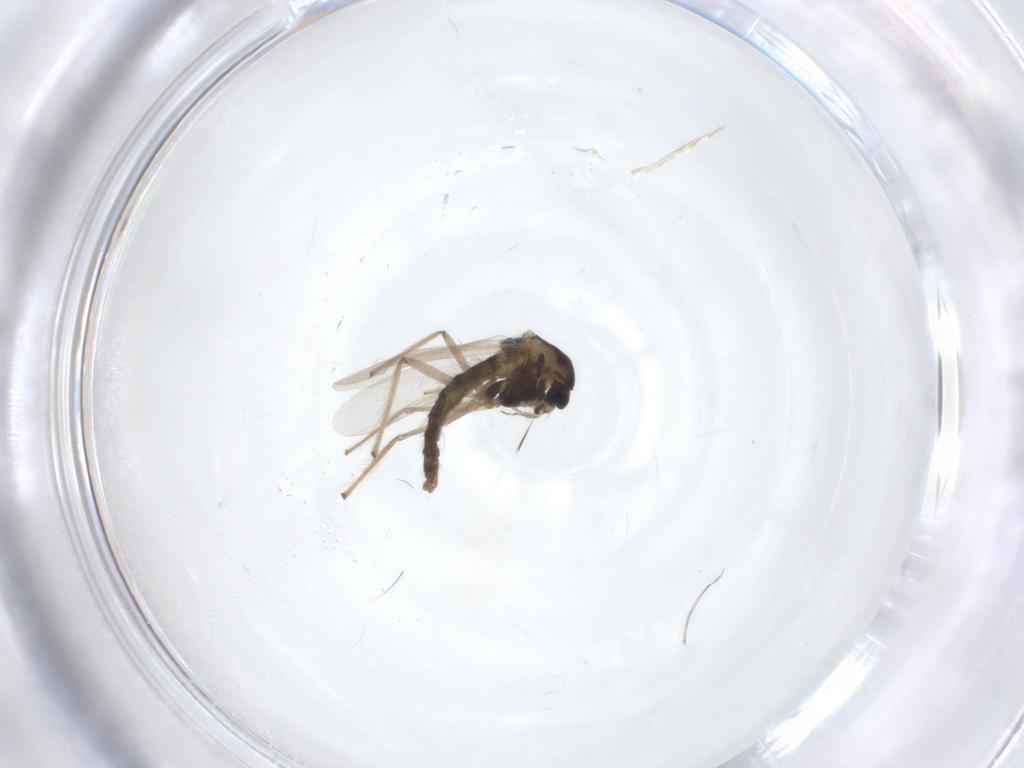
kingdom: Animalia
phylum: Arthropoda
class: Insecta
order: Diptera
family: Chironomidae
